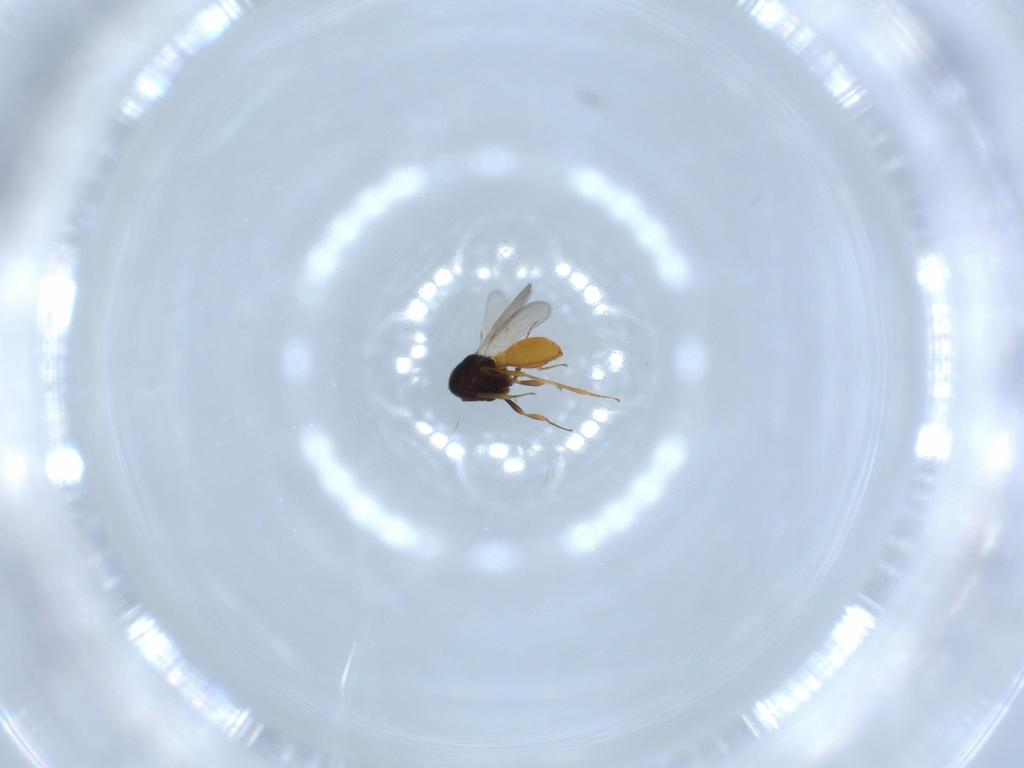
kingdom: Animalia
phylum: Arthropoda
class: Insecta
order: Hymenoptera
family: Scelionidae
